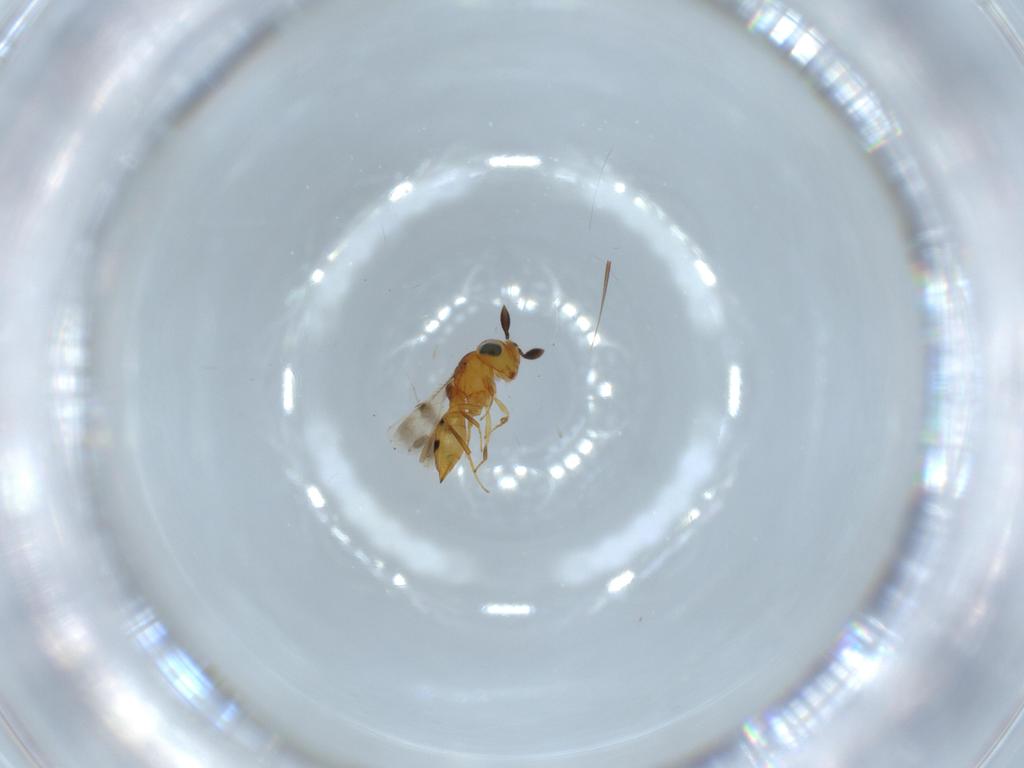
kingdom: Animalia
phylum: Arthropoda
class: Insecta
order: Hymenoptera
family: Scelionidae
